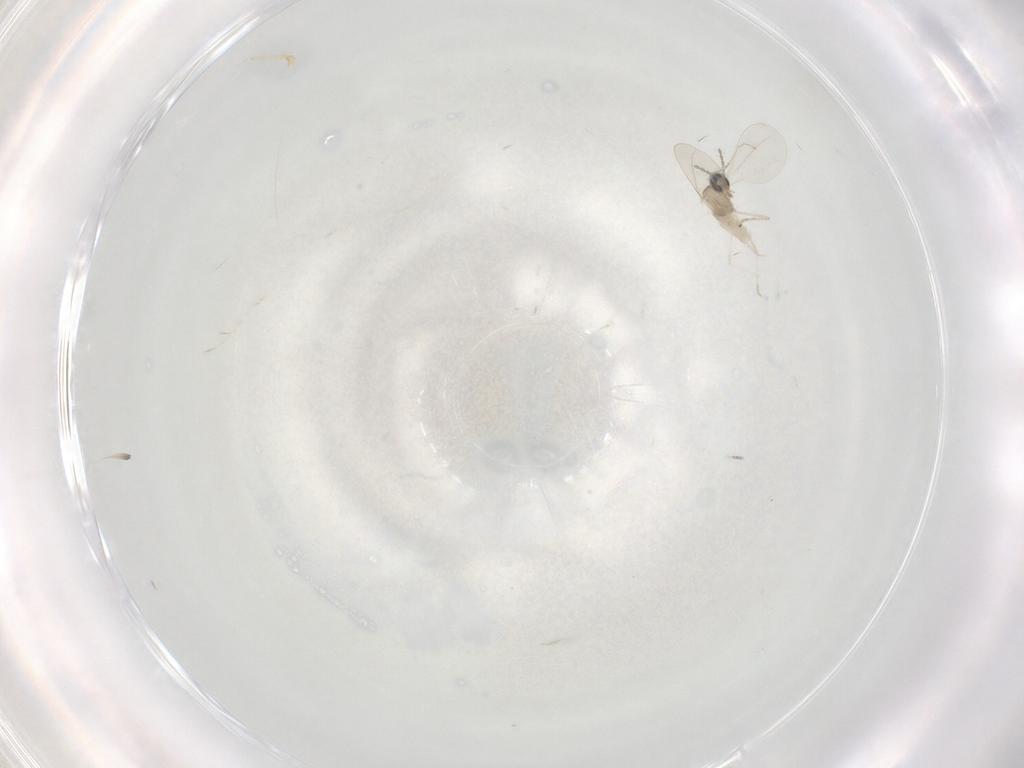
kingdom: Animalia
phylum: Arthropoda
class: Insecta
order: Diptera
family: Cecidomyiidae
